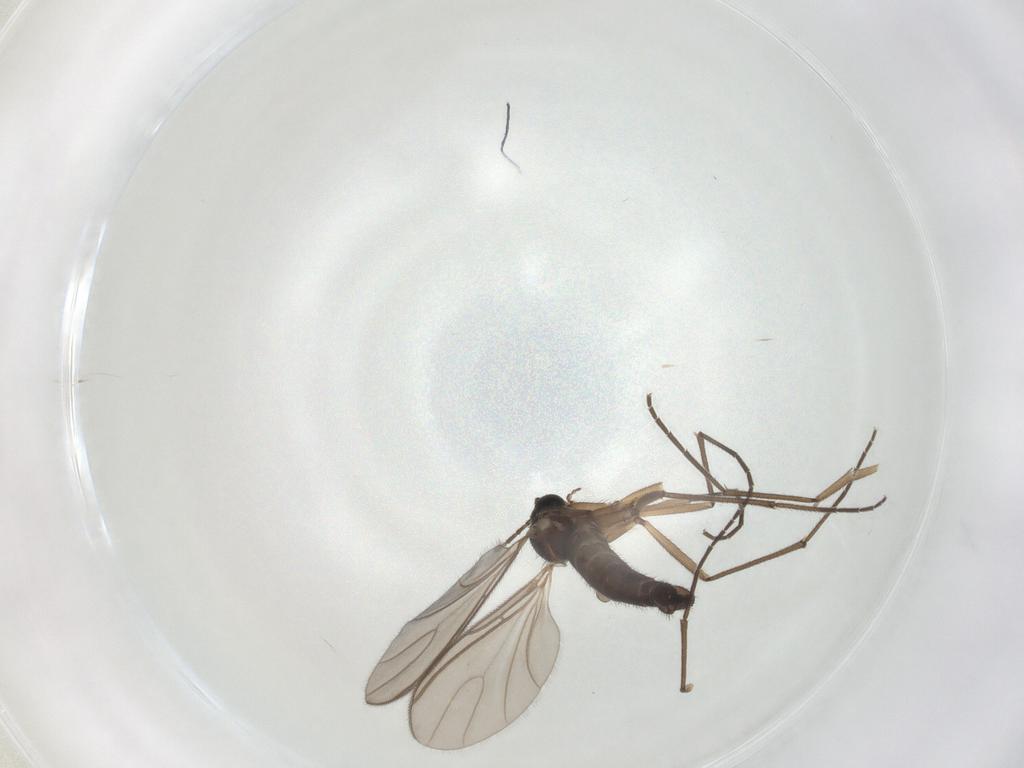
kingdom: Animalia
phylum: Arthropoda
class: Insecta
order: Diptera
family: Sciaridae
